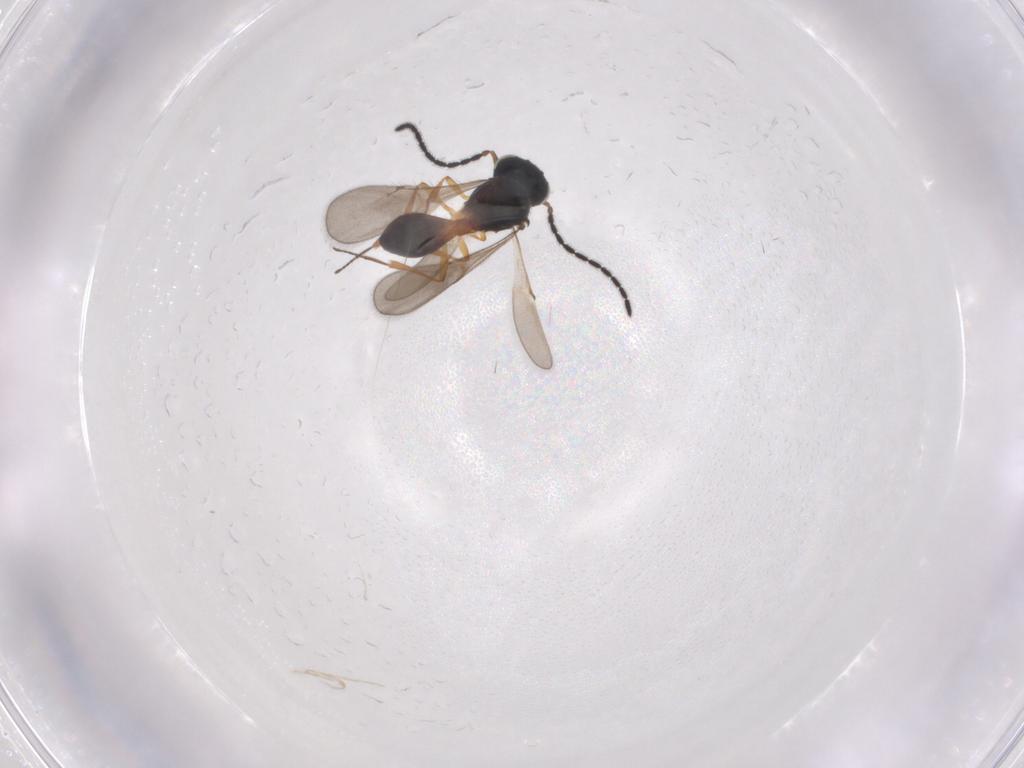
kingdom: Animalia
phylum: Arthropoda
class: Insecta
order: Hymenoptera
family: Scelionidae
